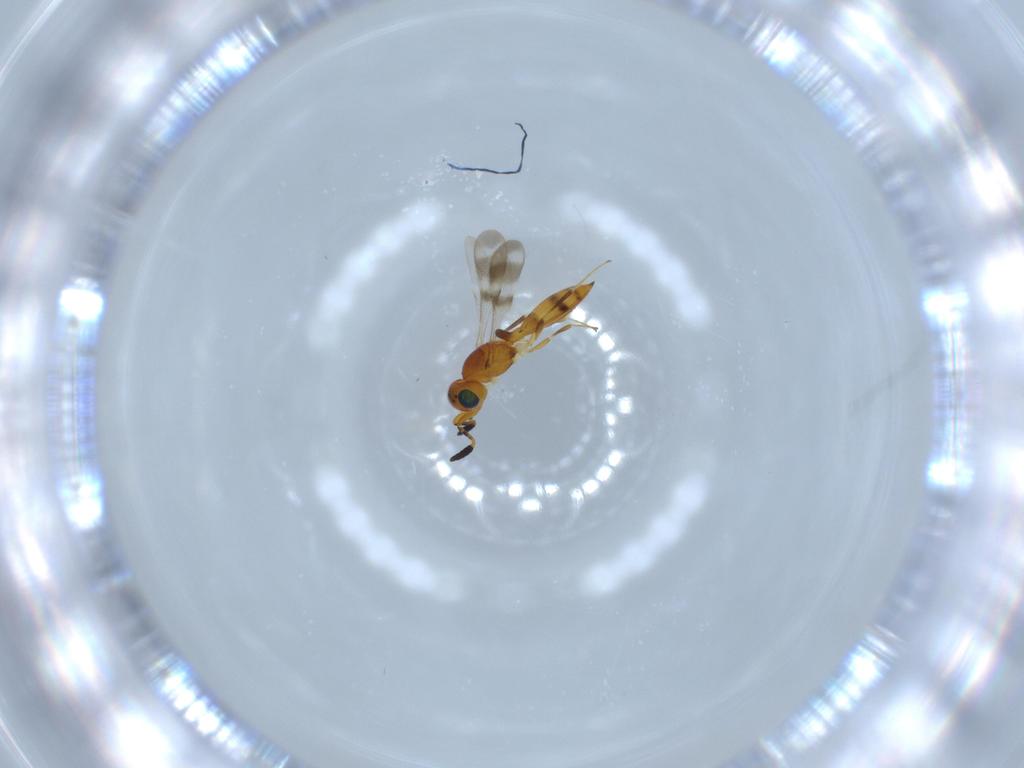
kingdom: Animalia
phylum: Arthropoda
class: Insecta
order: Hymenoptera
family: Scelionidae
